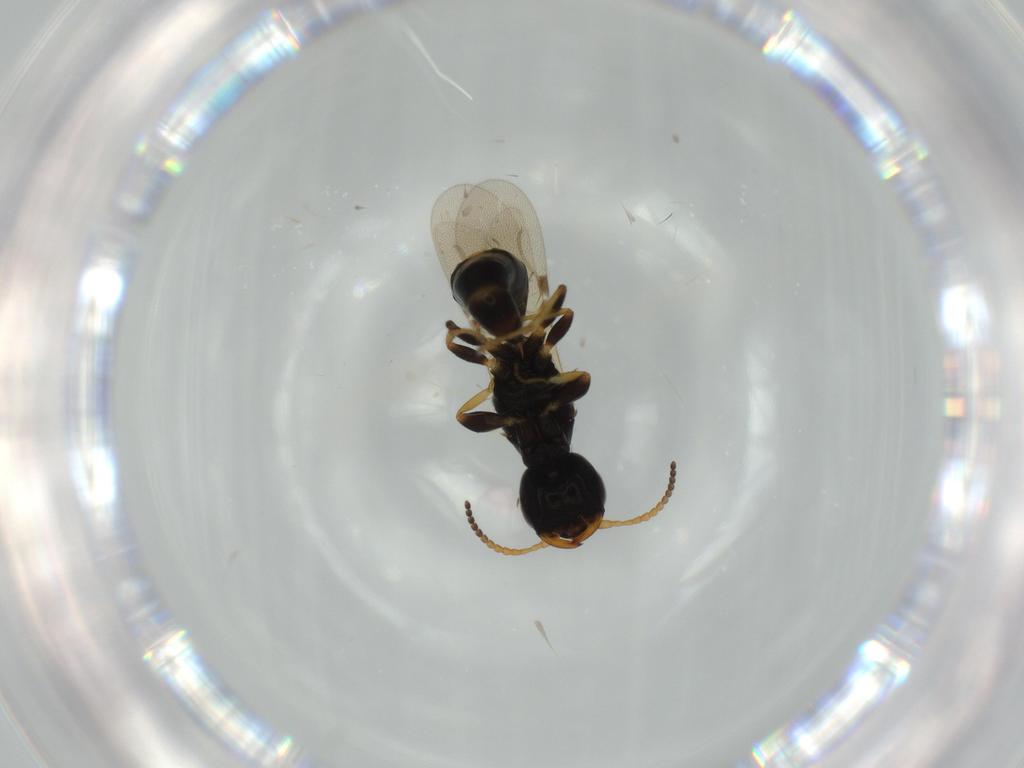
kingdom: Animalia
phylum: Arthropoda
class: Insecta
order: Hymenoptera
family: Bethylidae
